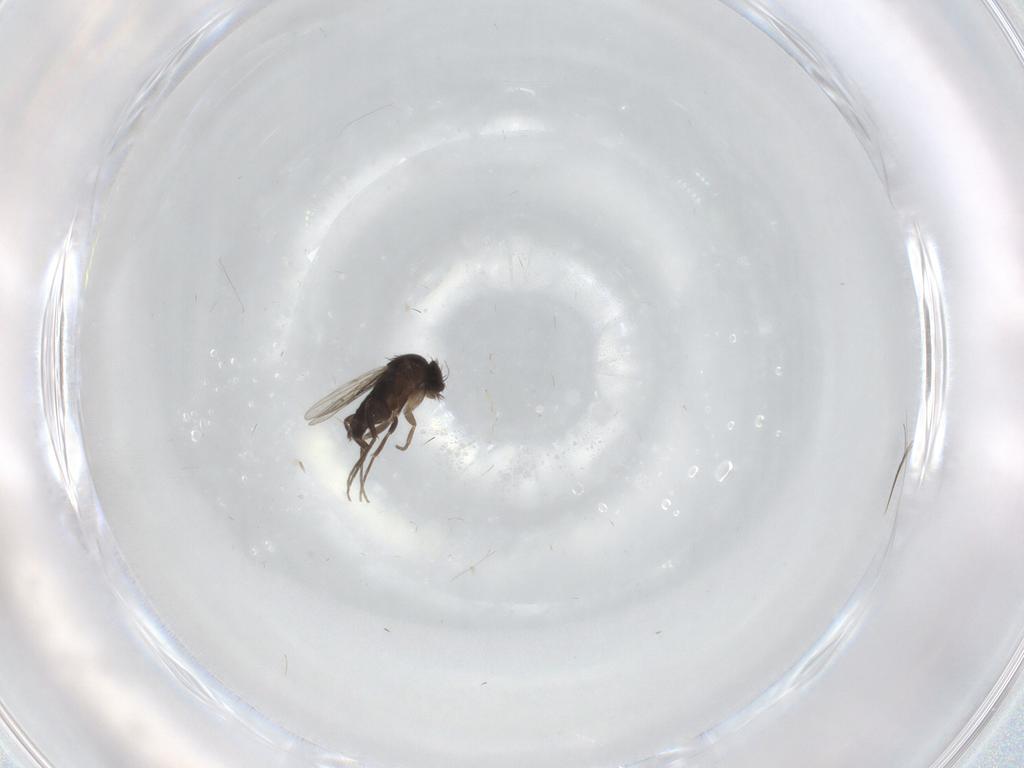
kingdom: Animalia
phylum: Arthropoda
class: Insecta
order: Diptera
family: Phoridae
